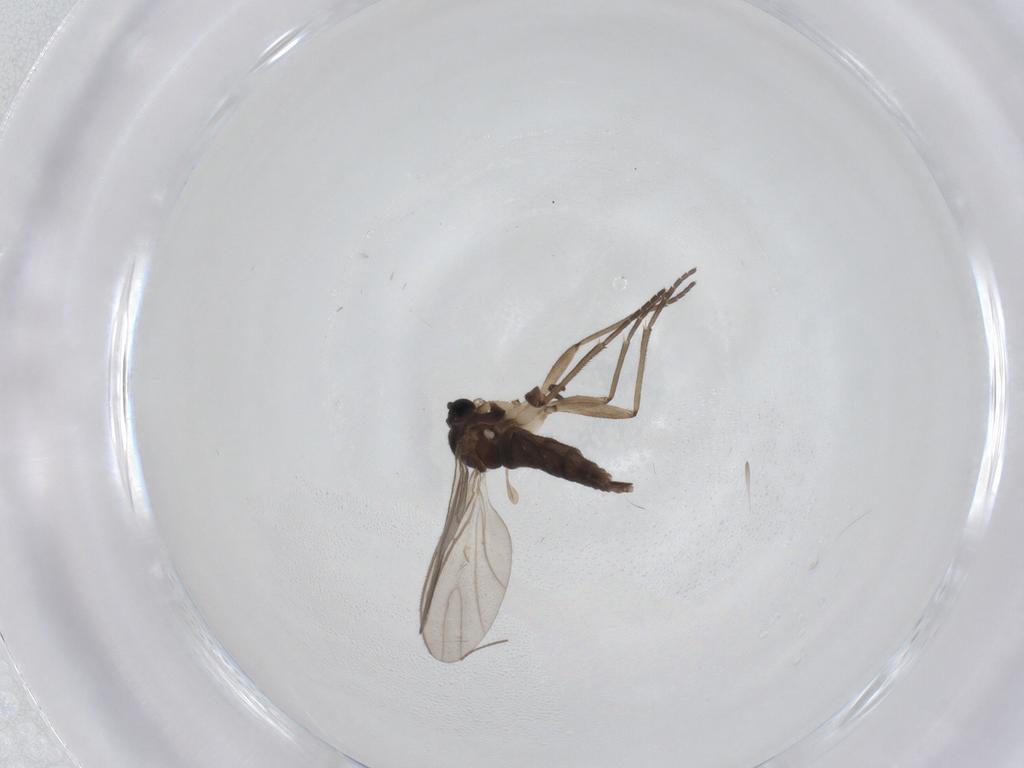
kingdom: Animalia
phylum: Arthropoda
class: Insecta
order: Diptera
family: Sciaridae
